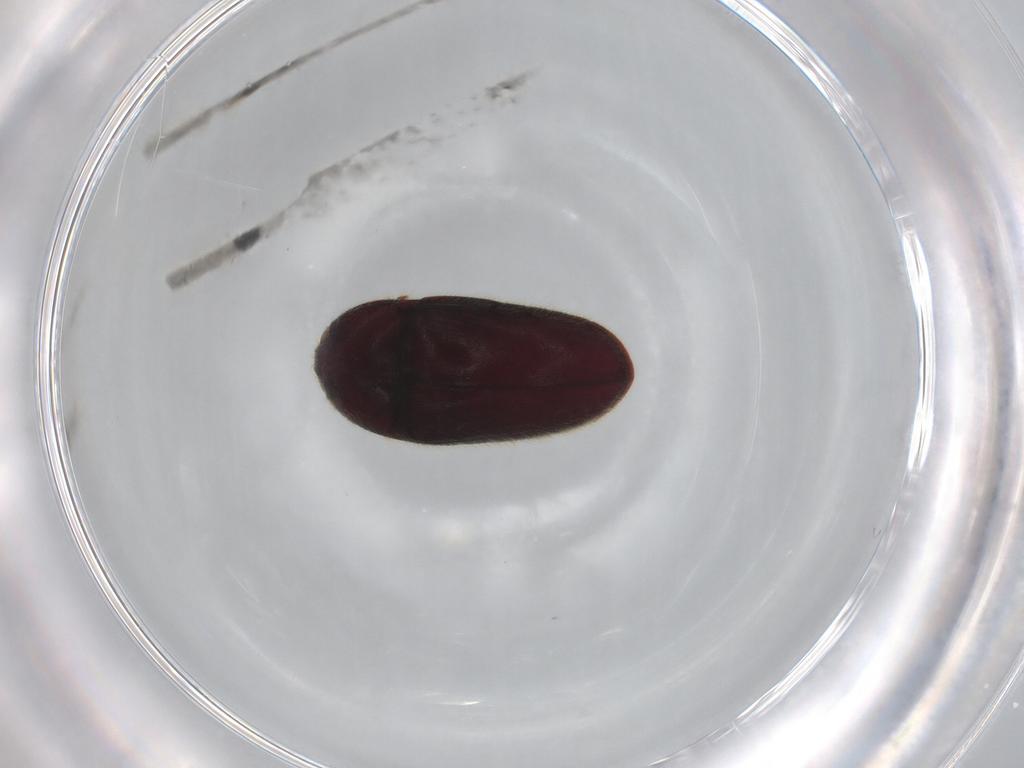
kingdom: Animalia
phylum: Arthropoda
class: Insecta
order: Coleoptera
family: Throscidae
